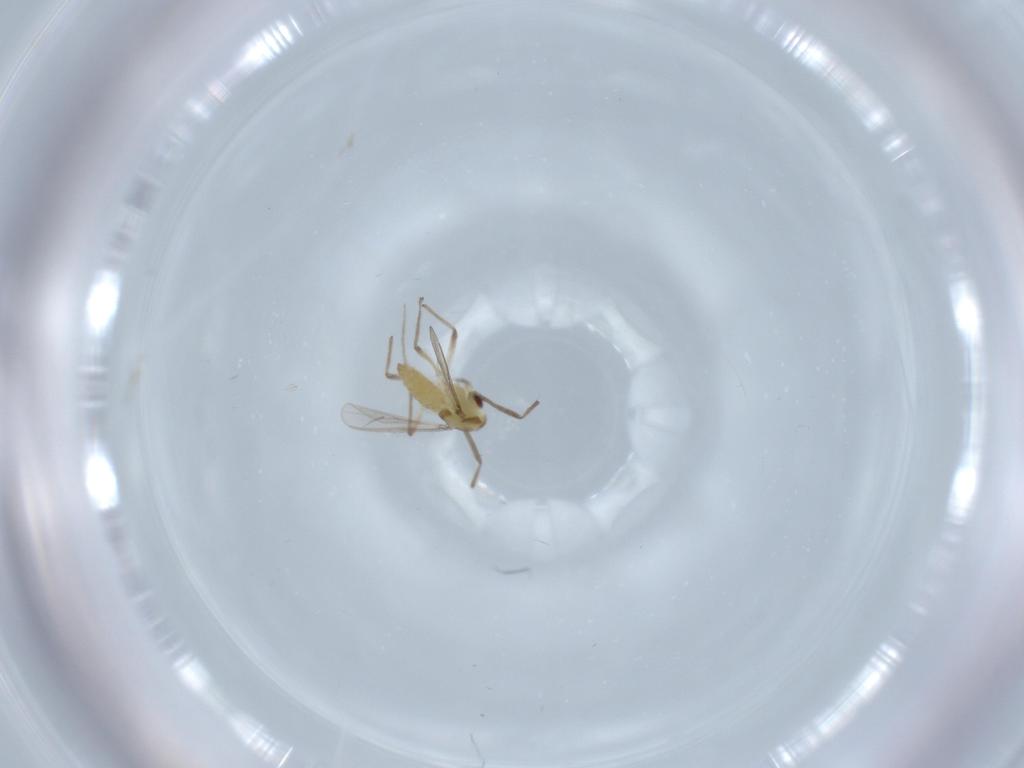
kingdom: Animalia
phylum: Arthropoda
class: Insecta
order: Diptera
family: Chironomidae
